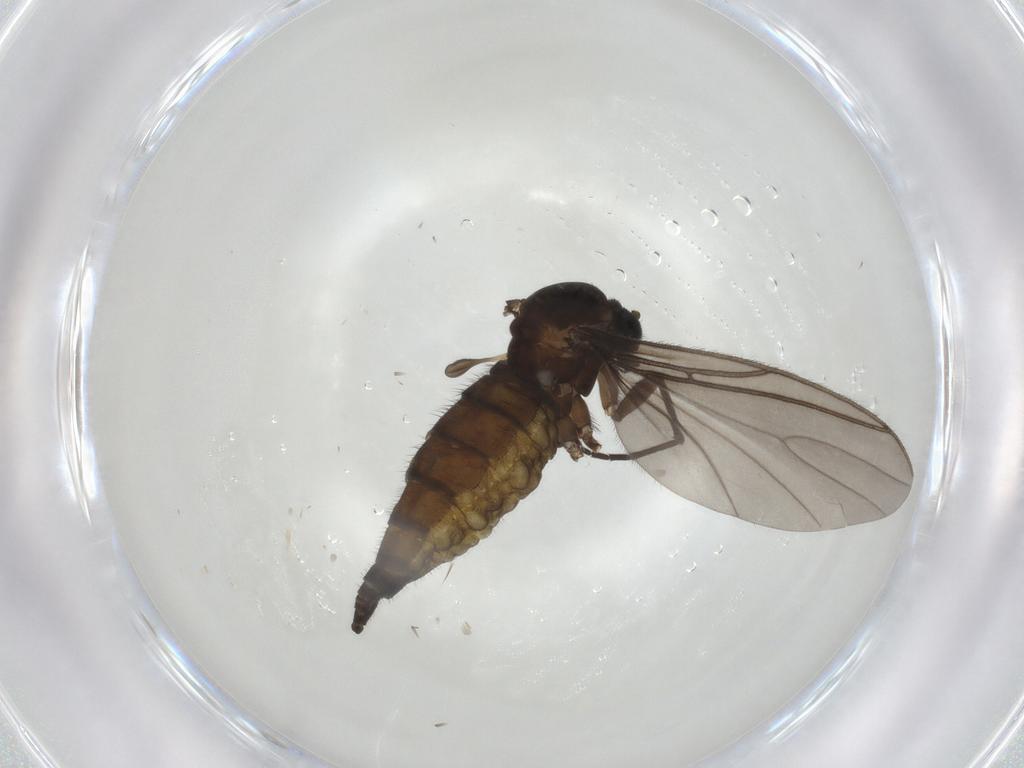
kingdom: Animalia
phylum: Arthropoda
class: Insecta
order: Diptera
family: Sciaridae
